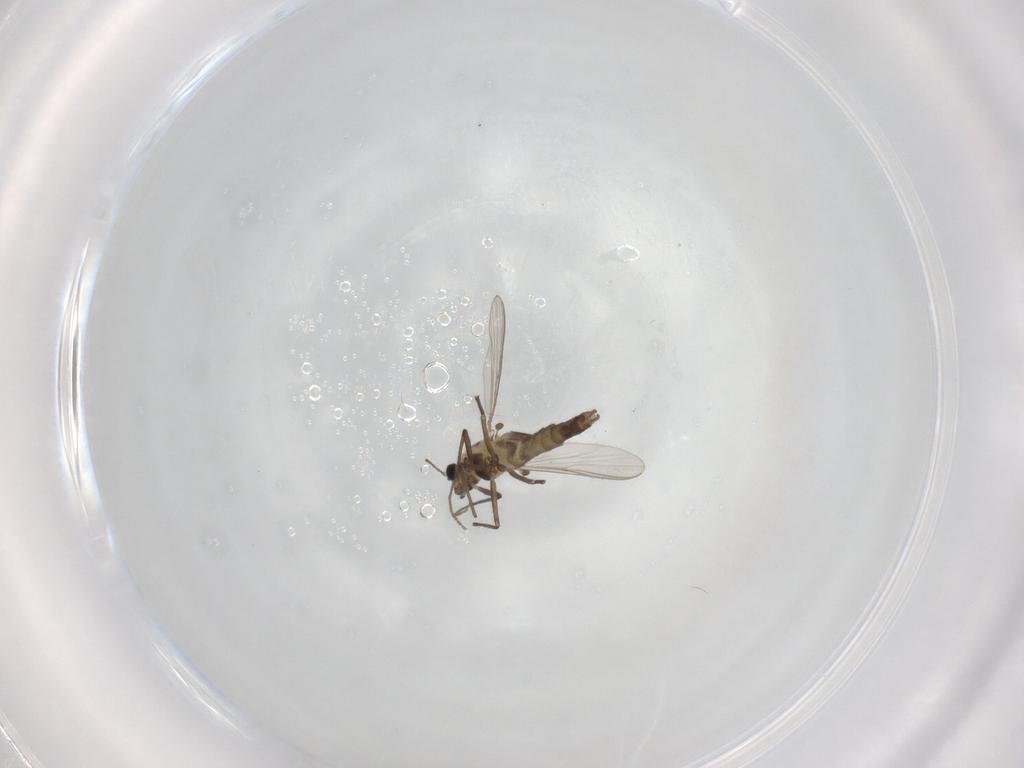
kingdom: Animalia
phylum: Arthropoda
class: Insecta
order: Diptera
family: Chironomidae
